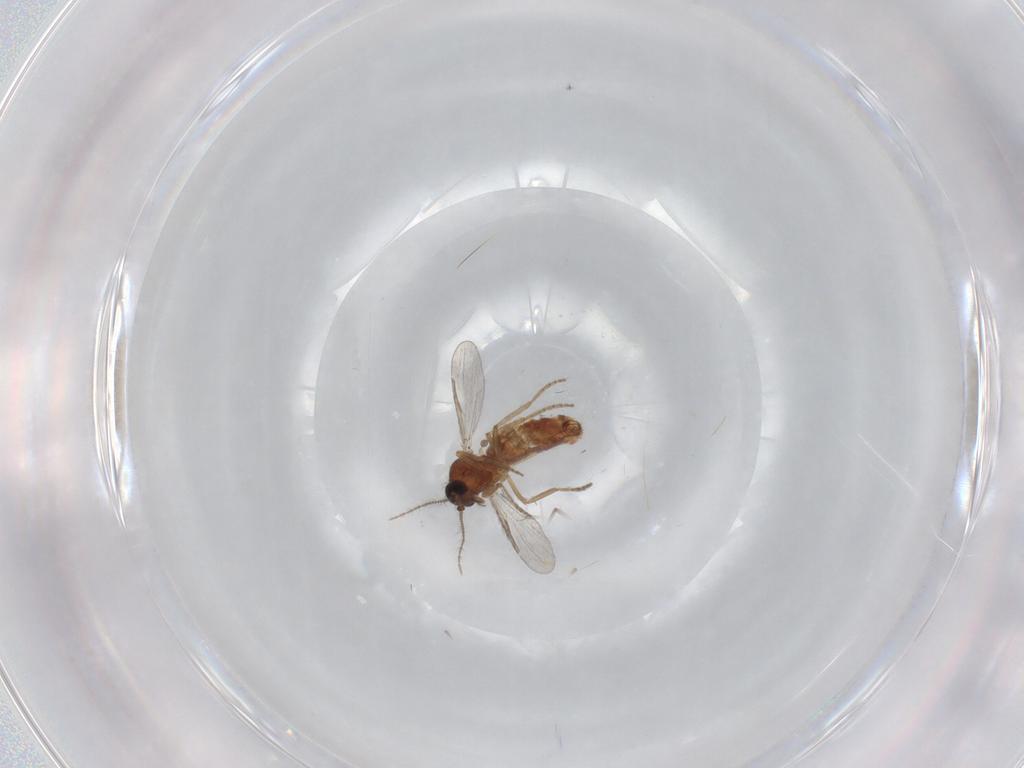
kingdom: Animalia
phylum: Arthropoda
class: Insecta
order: Diptera
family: Ceratopogonidae
